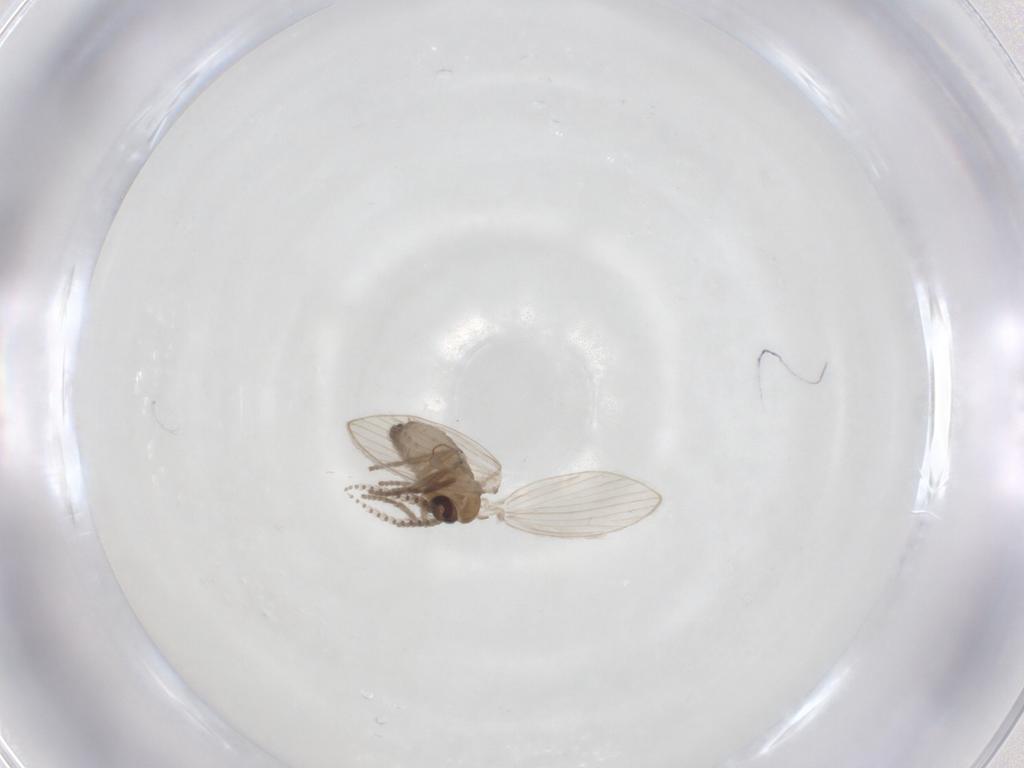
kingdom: Animalia
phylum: Arthropoda
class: Insecta
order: Diptera
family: Psychodidae
